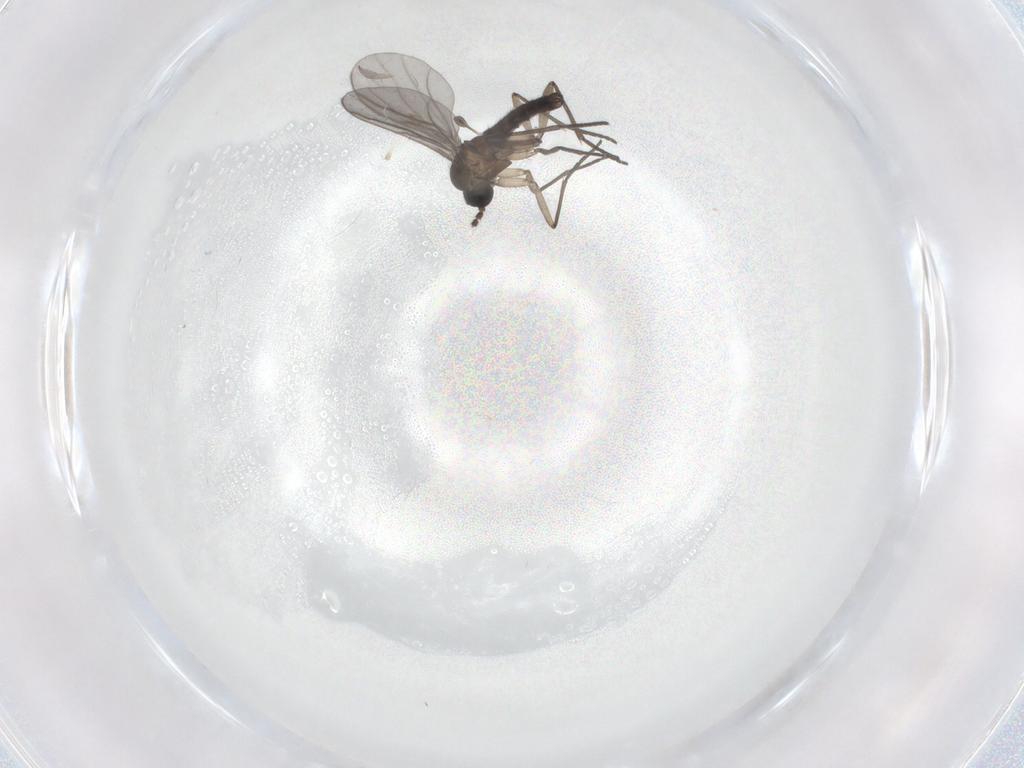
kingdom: Animalia
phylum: Arthropoda
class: Insecta
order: Diptera
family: Chironomidae
